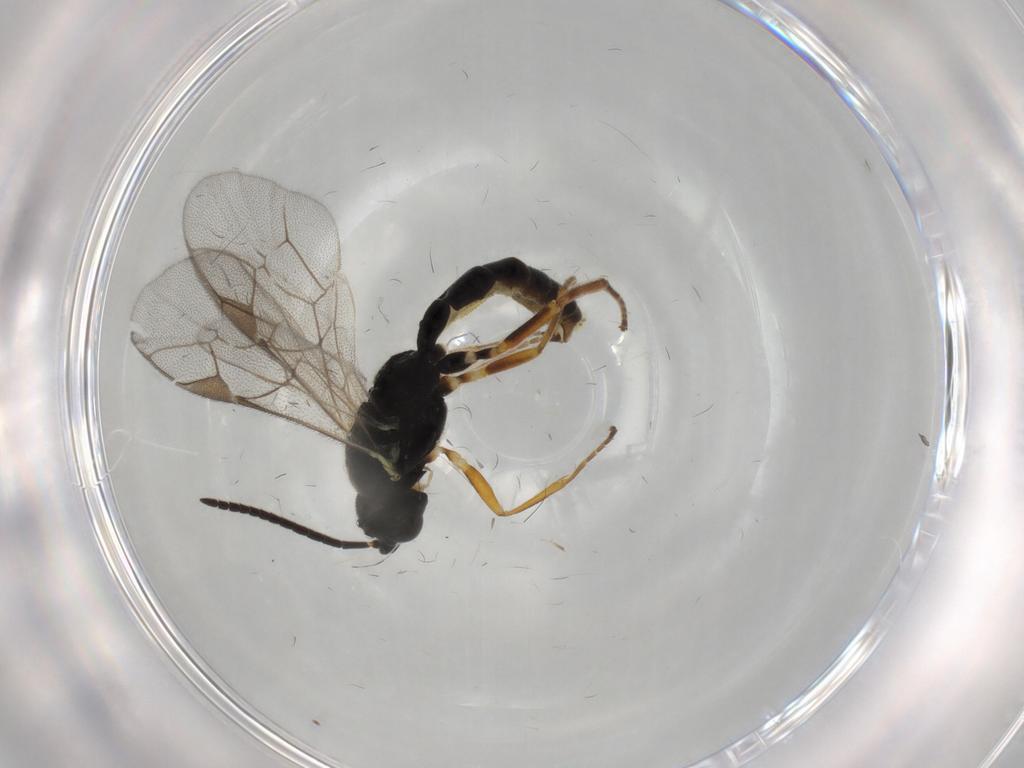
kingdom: Animalia
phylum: Arthropoda
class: Insecta
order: Hymenoptera
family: Ichneumonidae
